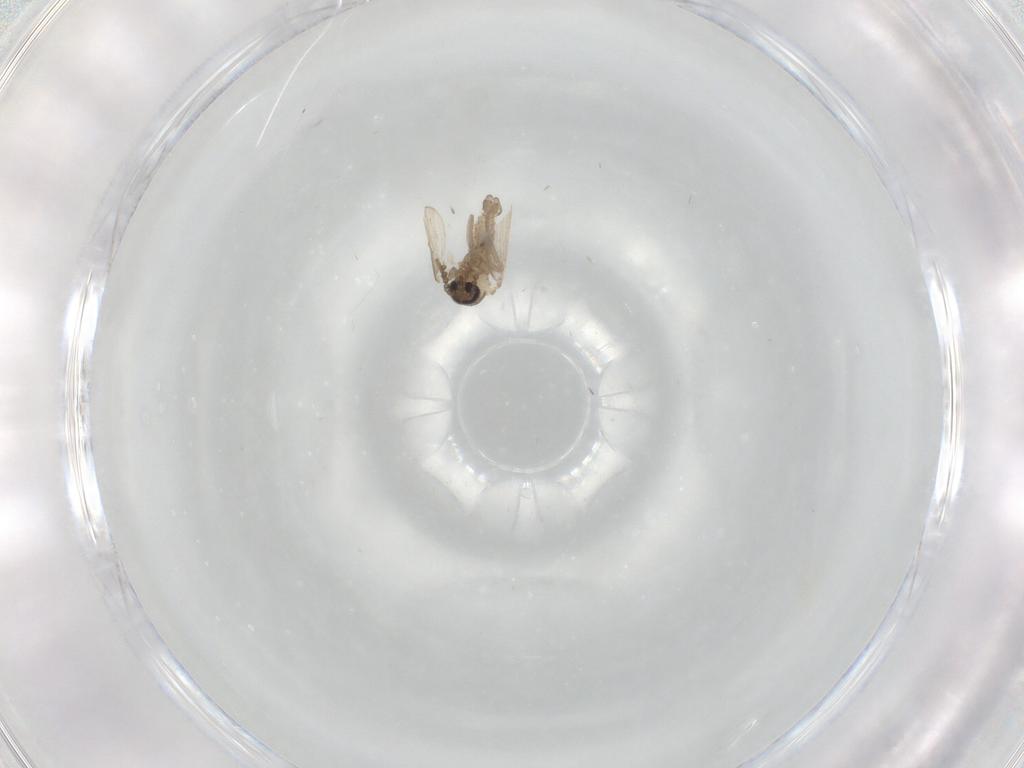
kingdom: Animalia
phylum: Arthropoda
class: Insecta
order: Diptera
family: Psychodidae
